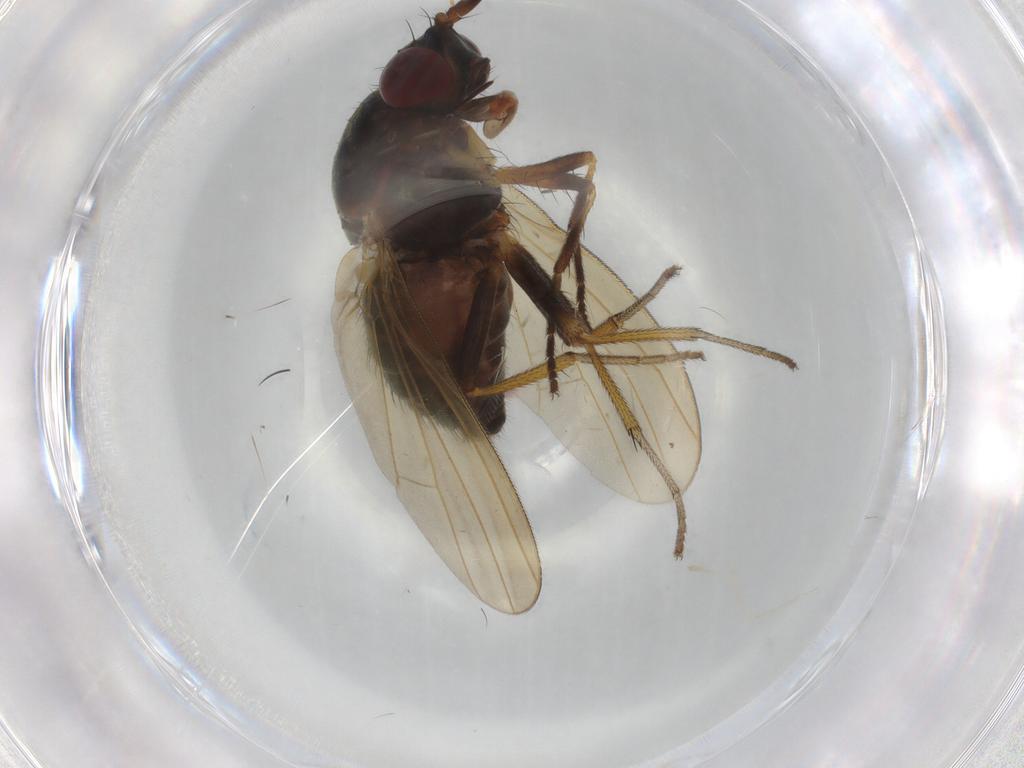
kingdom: Animalia
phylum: Arthropoda
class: Insecta
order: Diptera
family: Cecidomyiidae
